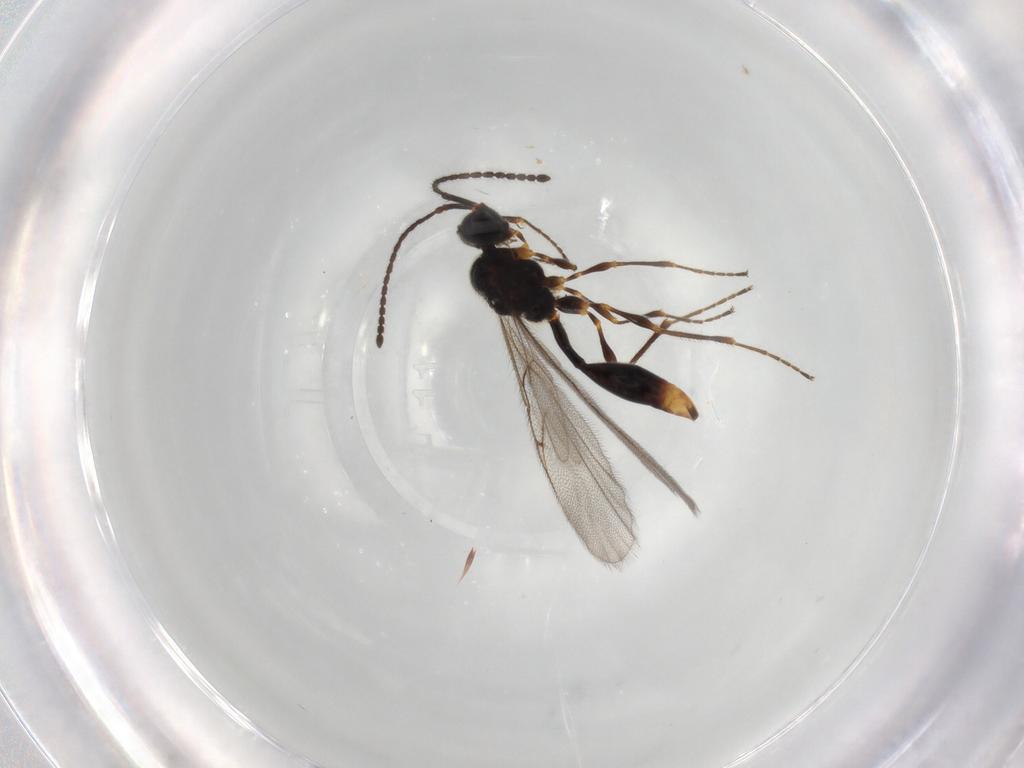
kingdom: Animalia
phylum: Arthropoda
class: Insecta
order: Hymenoptera
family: Diapriidae
